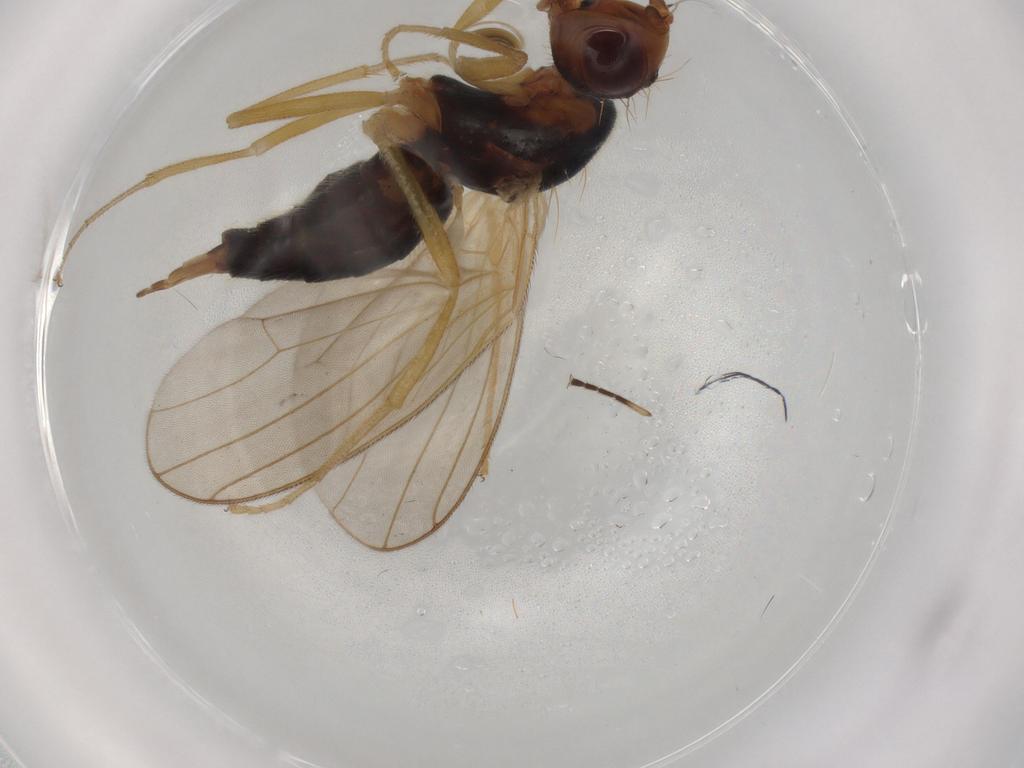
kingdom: Animalia
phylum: Arthropoda
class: Insecta
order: Diptera
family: Hybotidae
